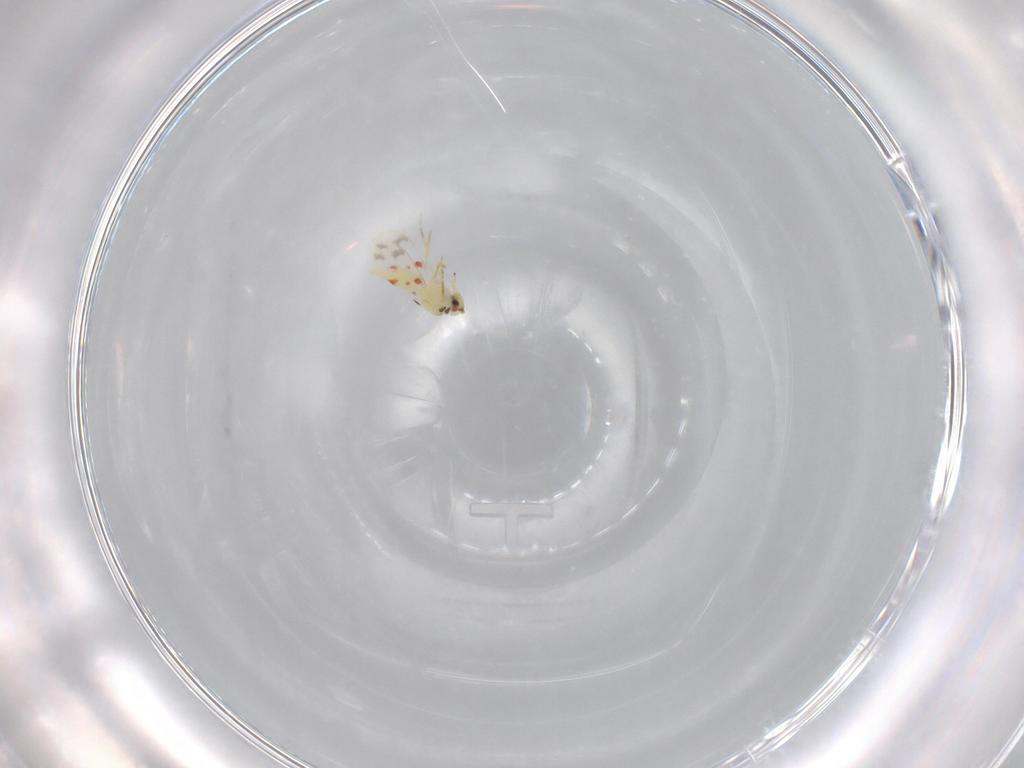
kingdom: Animalia
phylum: Arthropoda
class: Insecta
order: Hemiptera
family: Aleyrodidae
